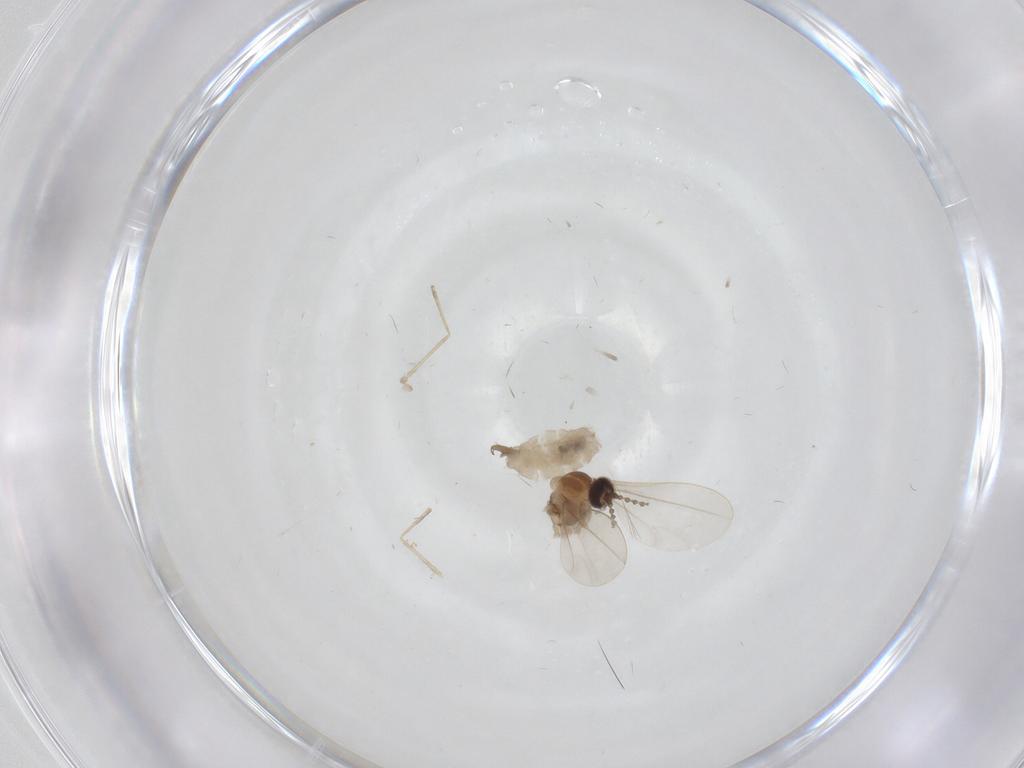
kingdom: Animalia
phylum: Arthropoda
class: Insecta
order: Diptera
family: Cecidomyiidae
